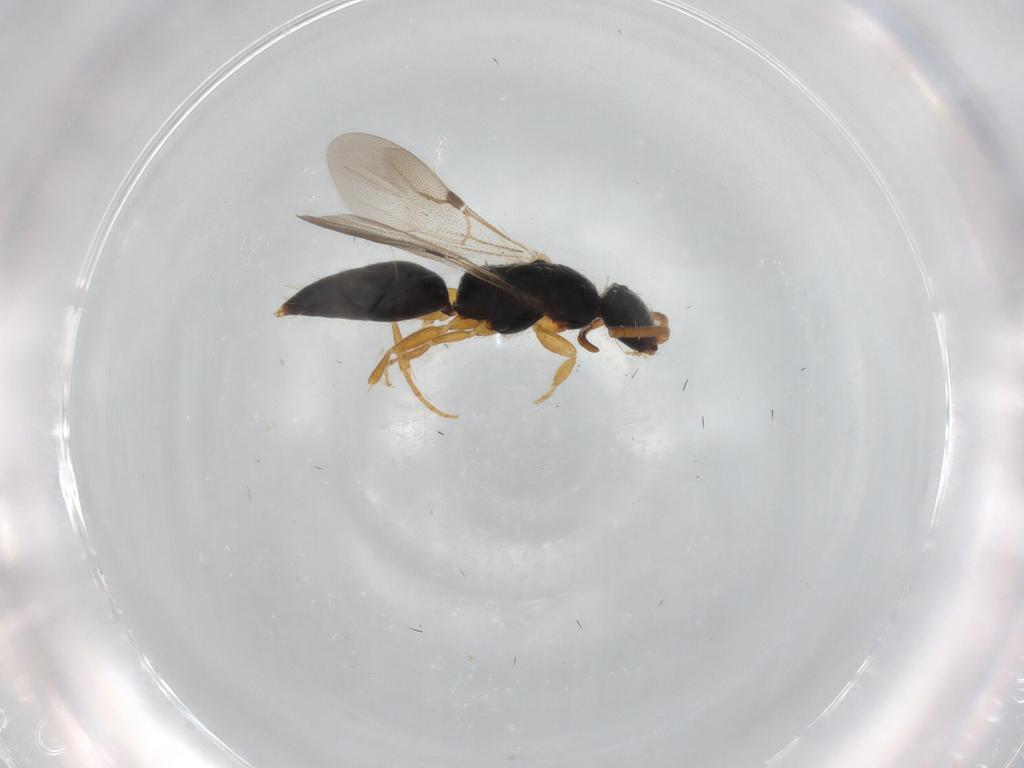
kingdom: Animalia
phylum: Arthropoda
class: Insecta
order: Hymenoptera
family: Bethylidae
